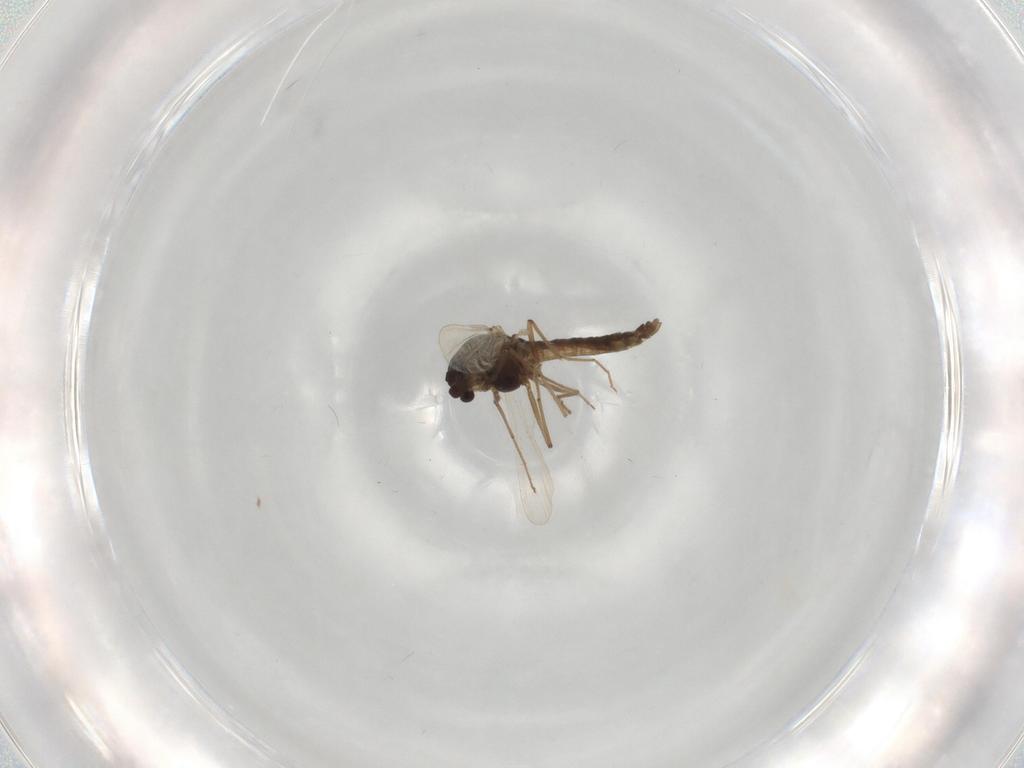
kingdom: Animalia
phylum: Arthropoda
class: Insecta
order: Diptera
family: Chironomidae
